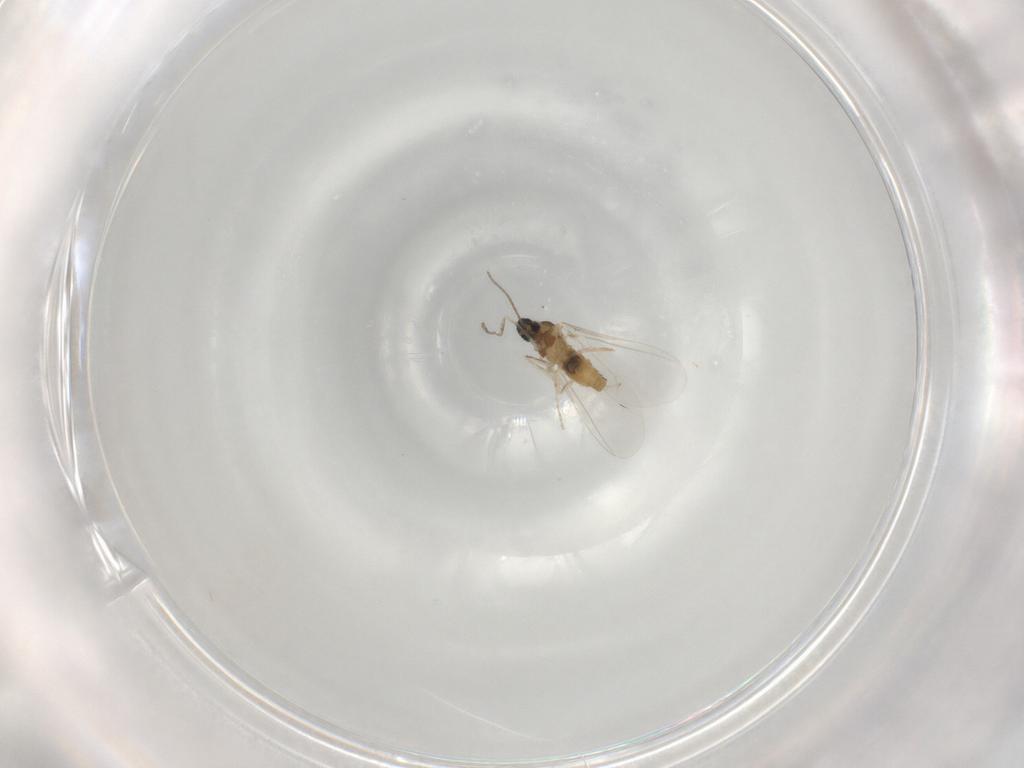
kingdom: Animalia
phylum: Arthropoda
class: Insecta
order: Diptera
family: Cecidomyiidae
